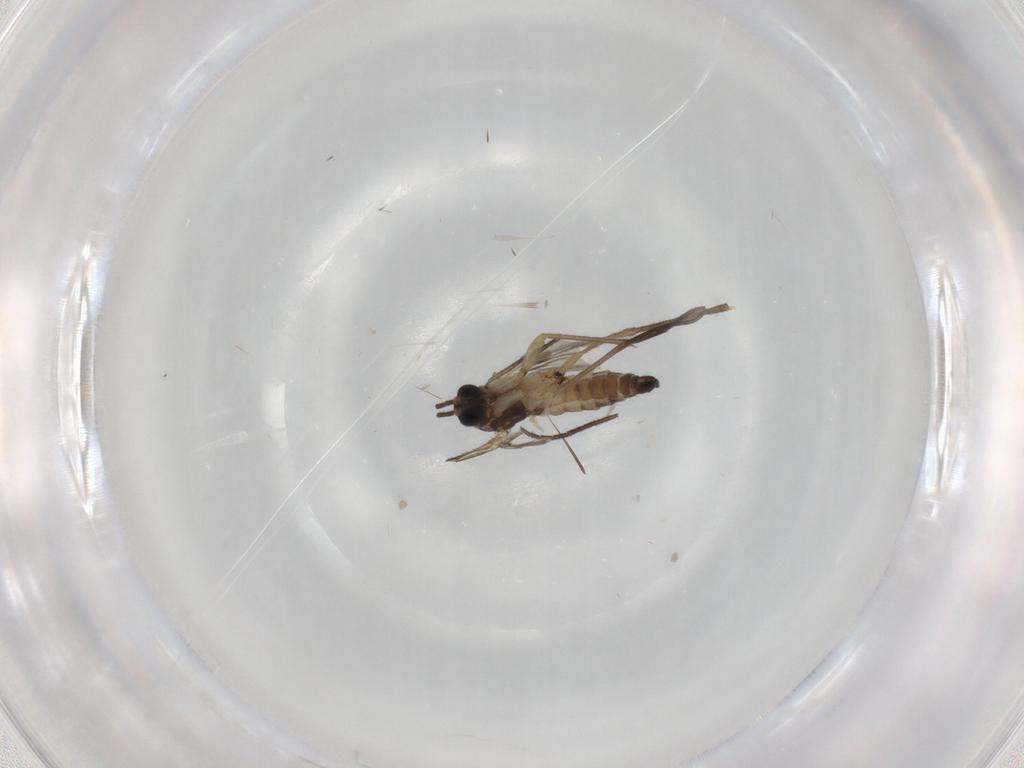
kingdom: Animalia
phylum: Arthropoda
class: Insecta
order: Diptera
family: Sciaridae
